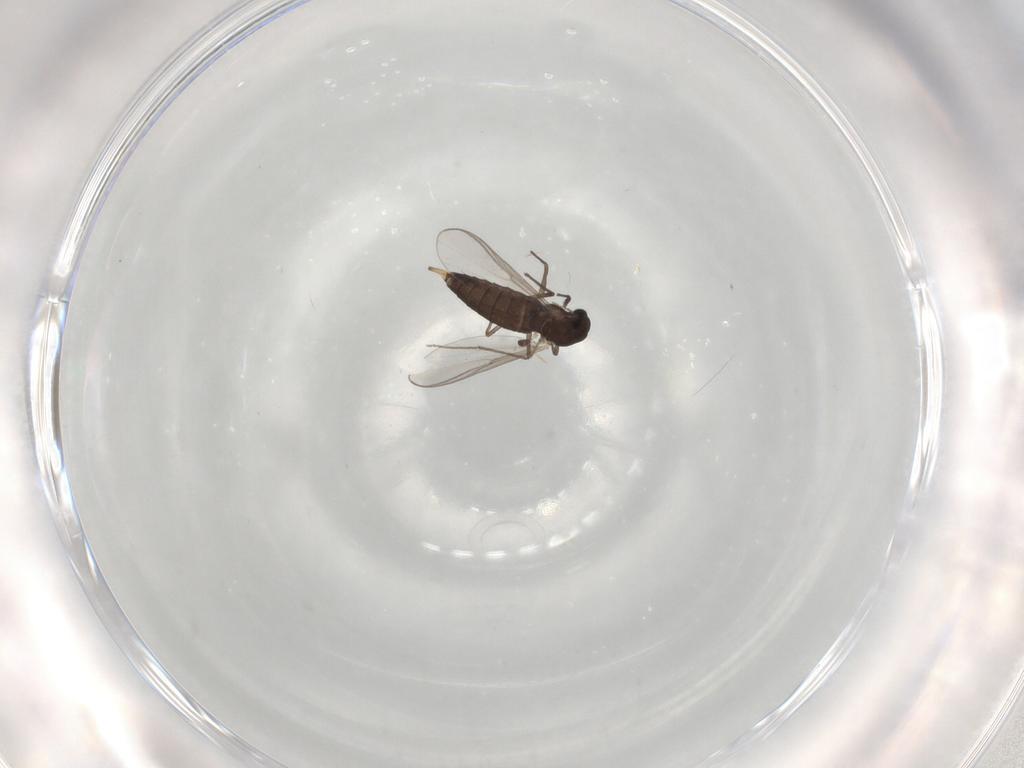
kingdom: Animalia
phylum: Arthropoda
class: Insecta
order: Diptera
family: Chironomidae
